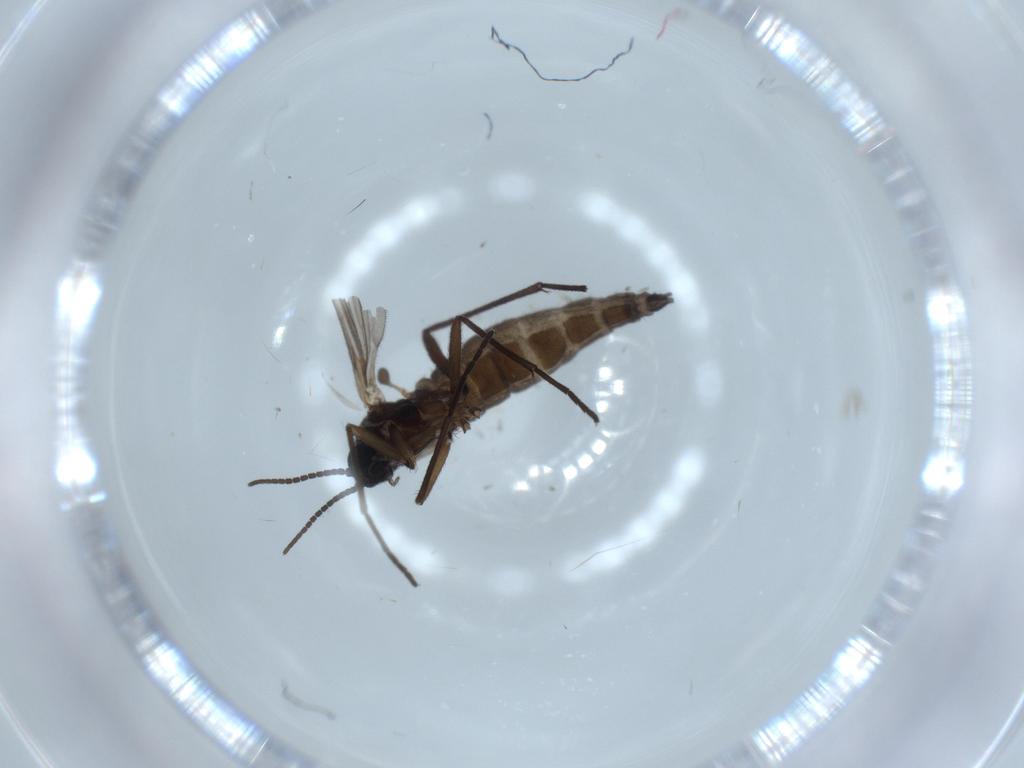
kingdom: Animalia
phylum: Arthropoda
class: Insecta
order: Diptera
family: Sciaridae
